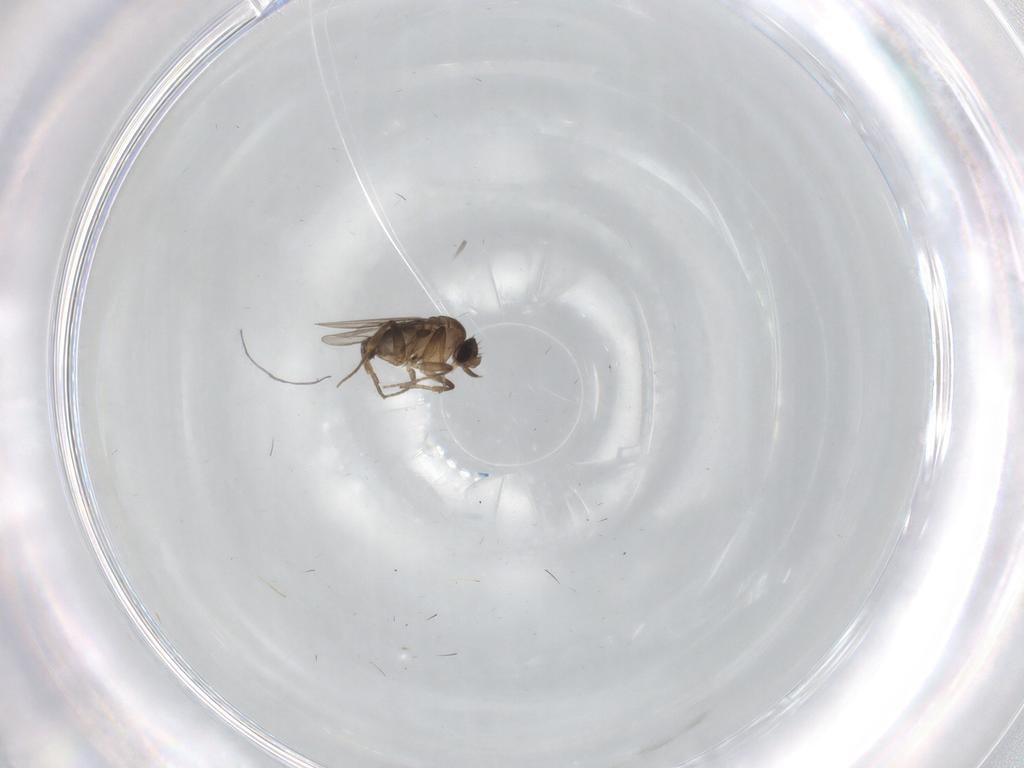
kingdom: Animalia
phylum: Arthropoda
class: Insecta
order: Diptera
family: Phoridae
